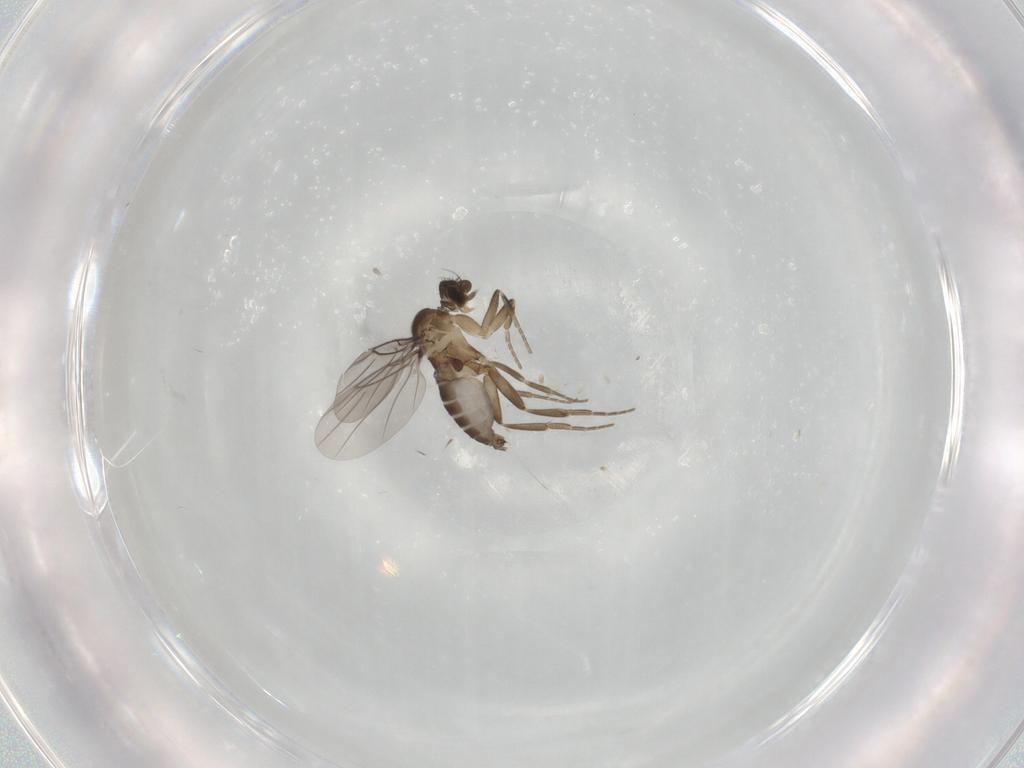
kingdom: Animalia
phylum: Arthropoda
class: Insecta
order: Diptera
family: Phoridae
